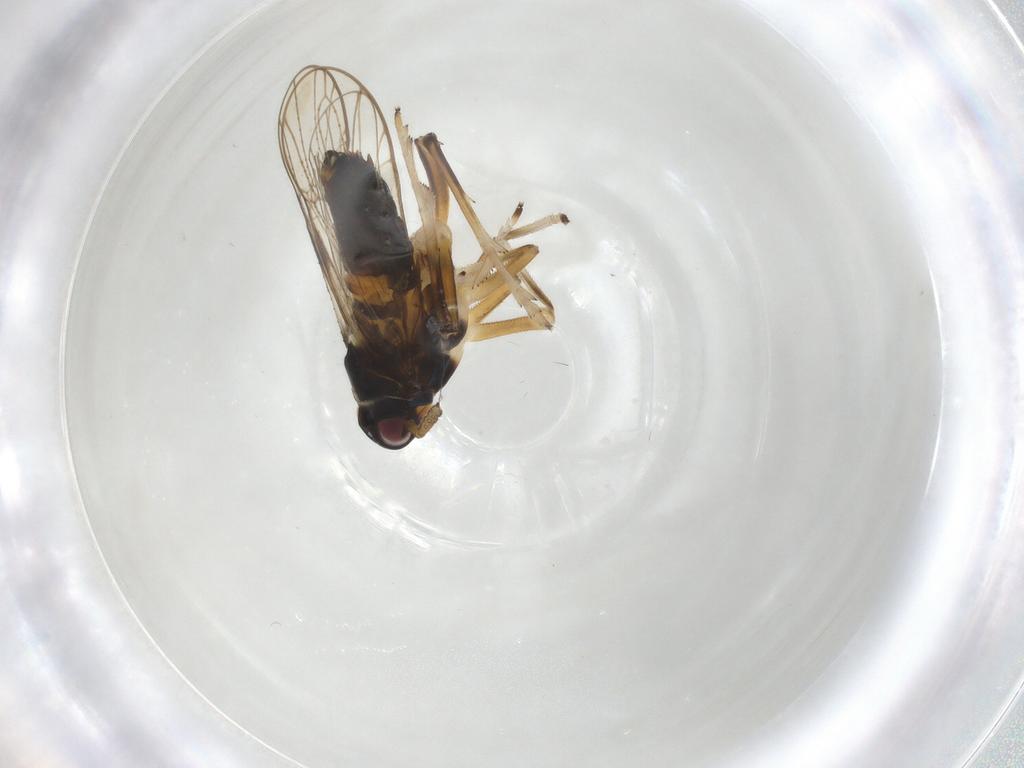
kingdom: Animalia
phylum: Arthropoda
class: Insecta
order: Hemiptera
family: Delphacidae
